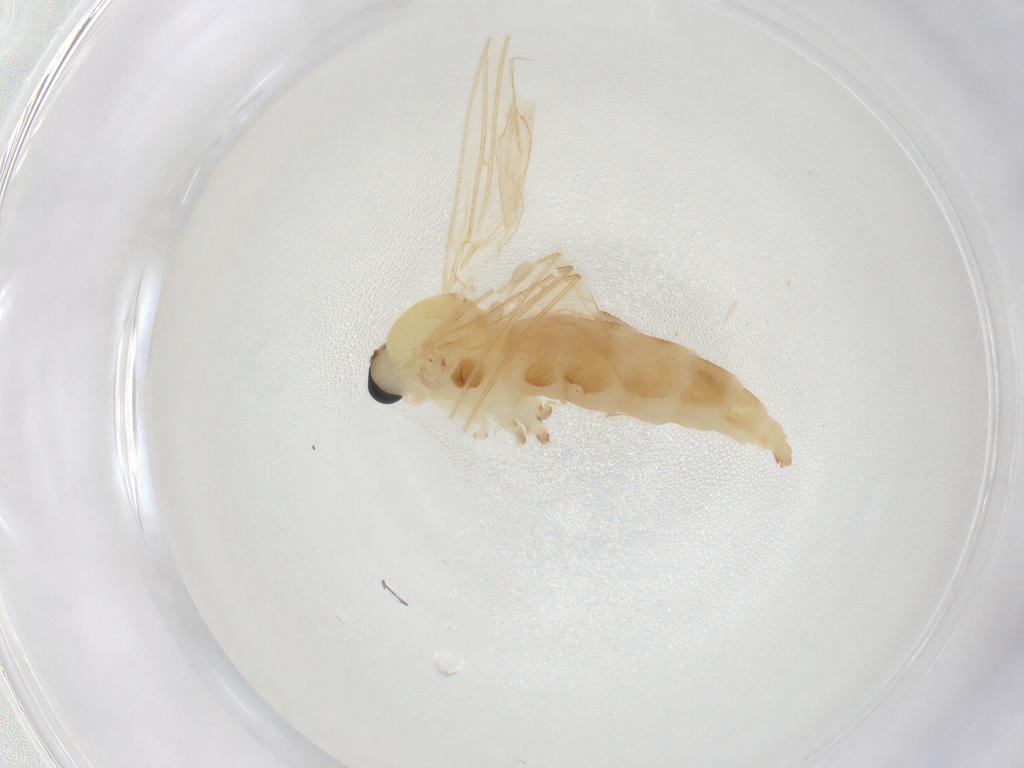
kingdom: Animalia
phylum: Arthropoda
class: Insecta
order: Diptera
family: Sciaridae
